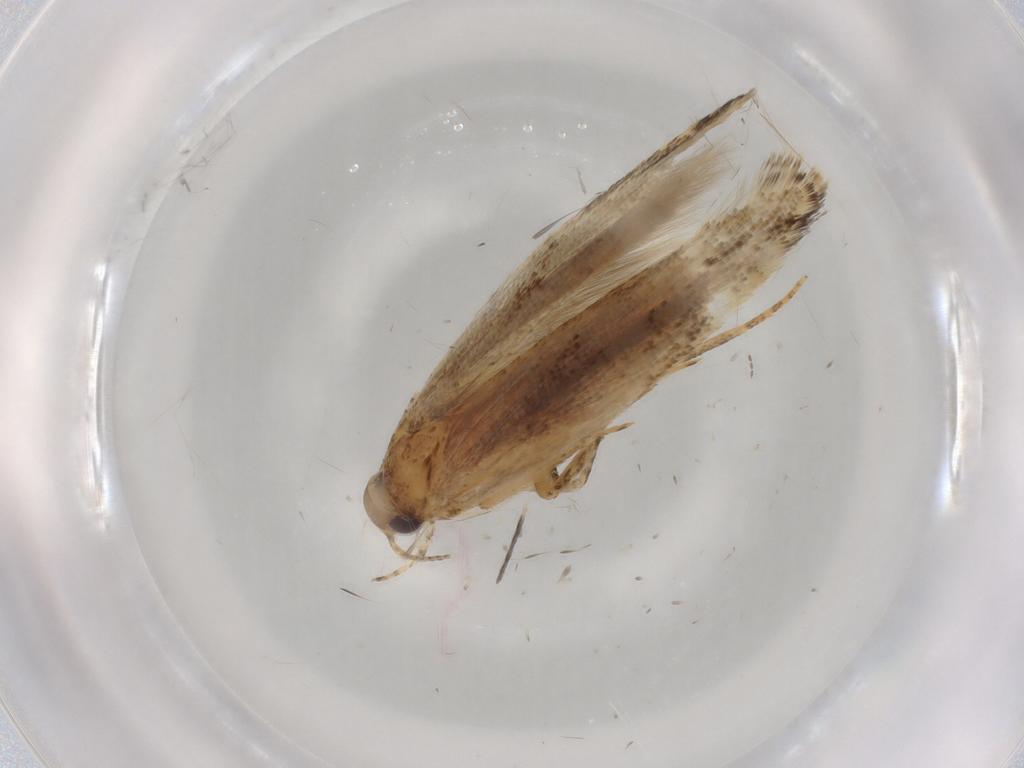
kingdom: Animalia
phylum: Arthropoda
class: Insecta
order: Lepidoptera
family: Gelechiidae
